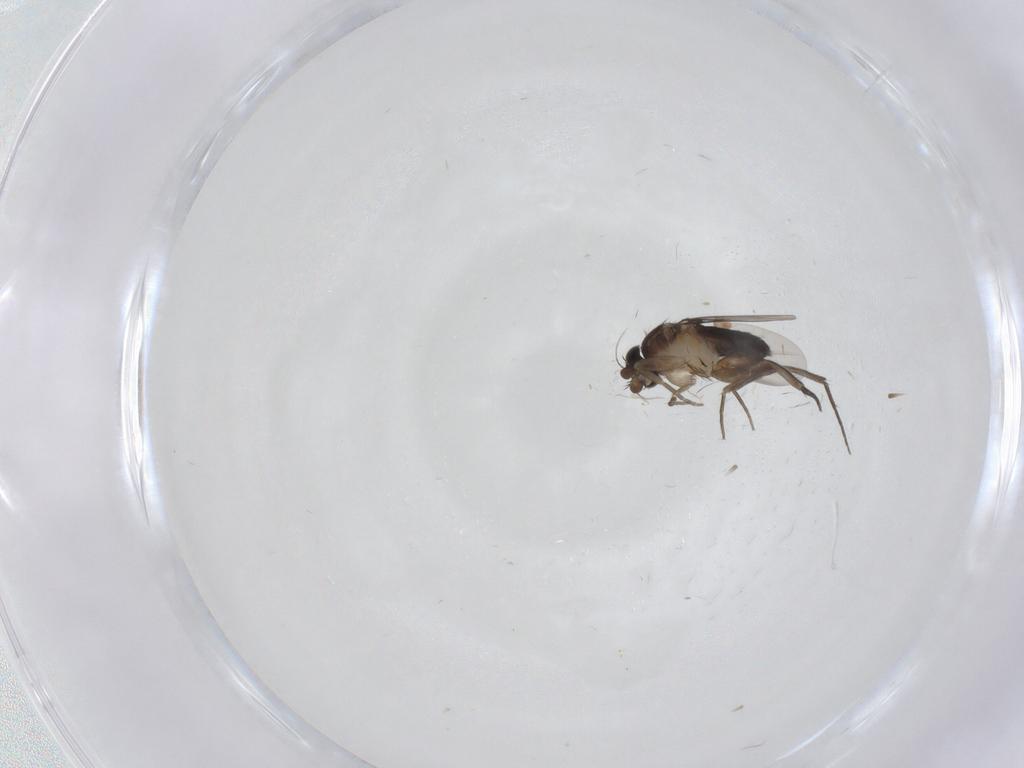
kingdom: Animalia
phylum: Arthropoda
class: Insecta
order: Diptera
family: Phoridae
